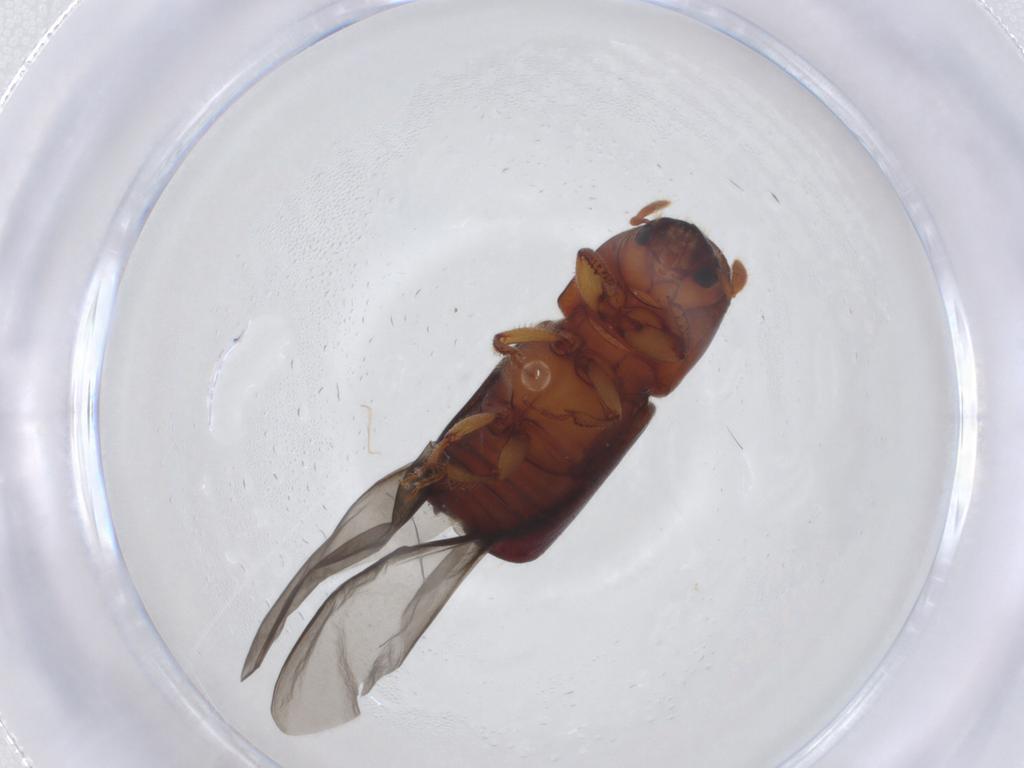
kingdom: Animalia
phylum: Arthropoda
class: Insecta
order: Coleoptera
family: Curculionidae
